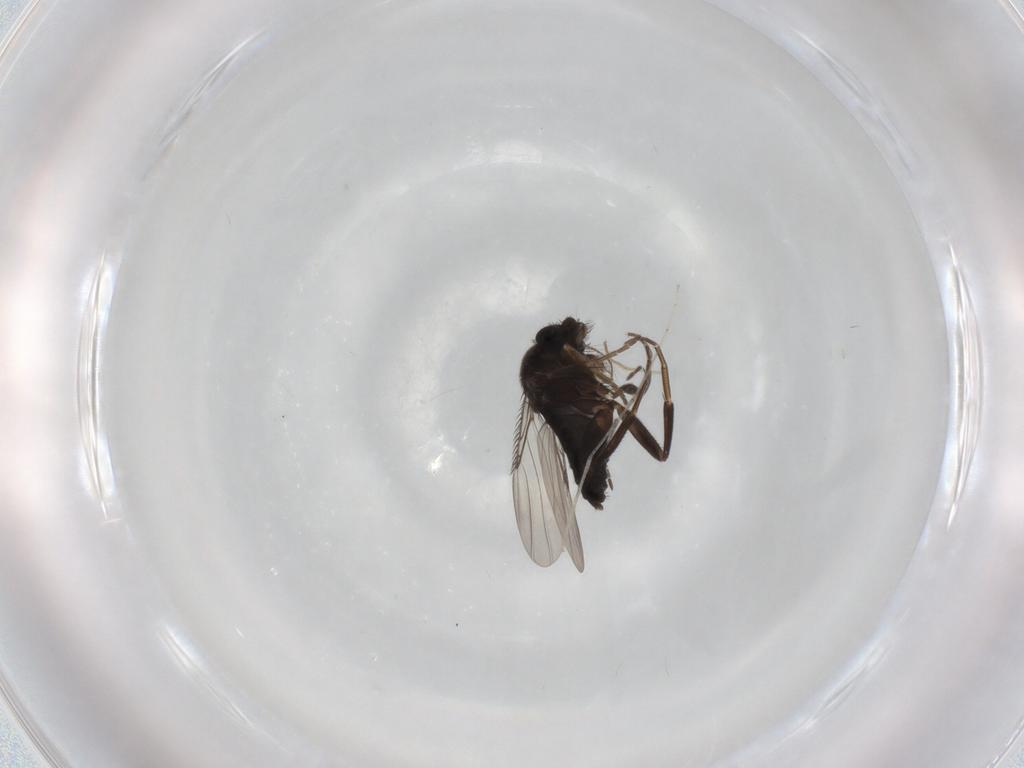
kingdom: Animalia
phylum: Arthropoda
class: Insecta
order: Diptera
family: Phoridae
